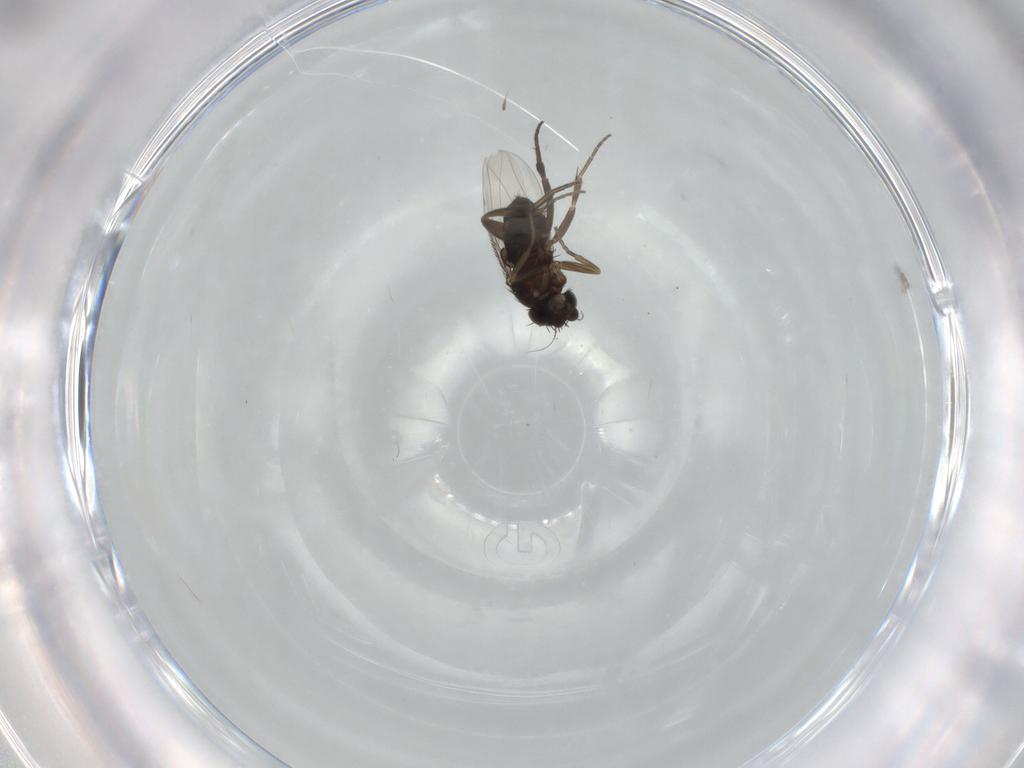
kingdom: Animalia
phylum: Arthropoda
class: Insecta
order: Diptera
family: Phoridae
